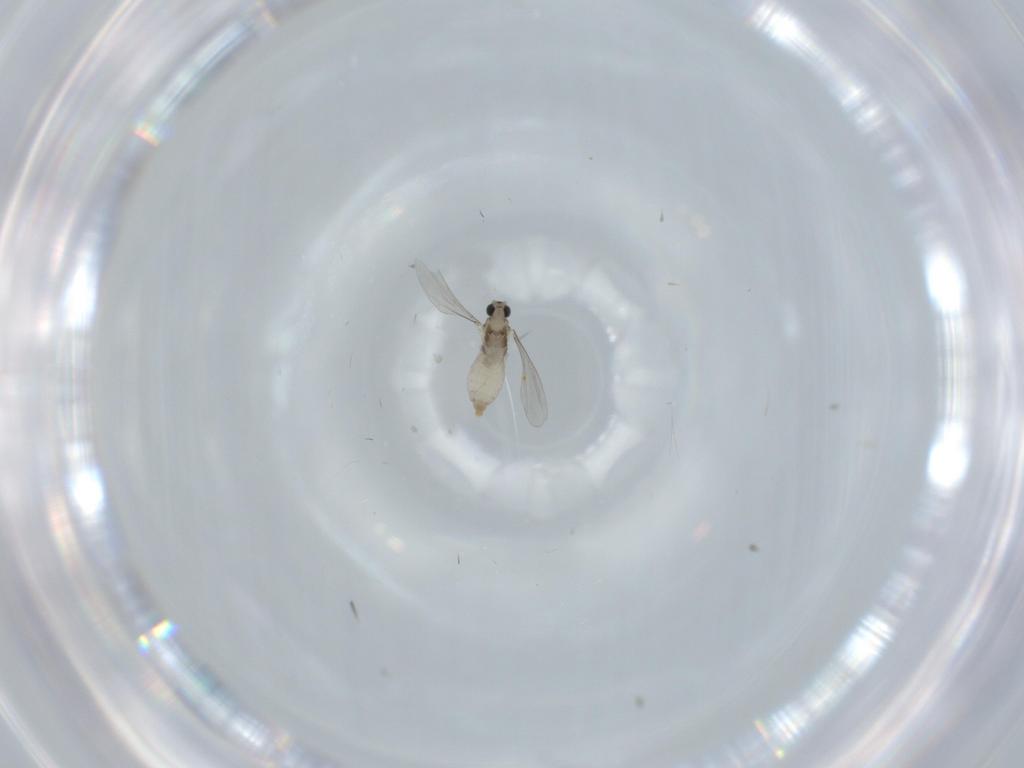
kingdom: Animalia
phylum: Arthropoda
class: Insecta
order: Diptera
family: Cecidomyiidae
